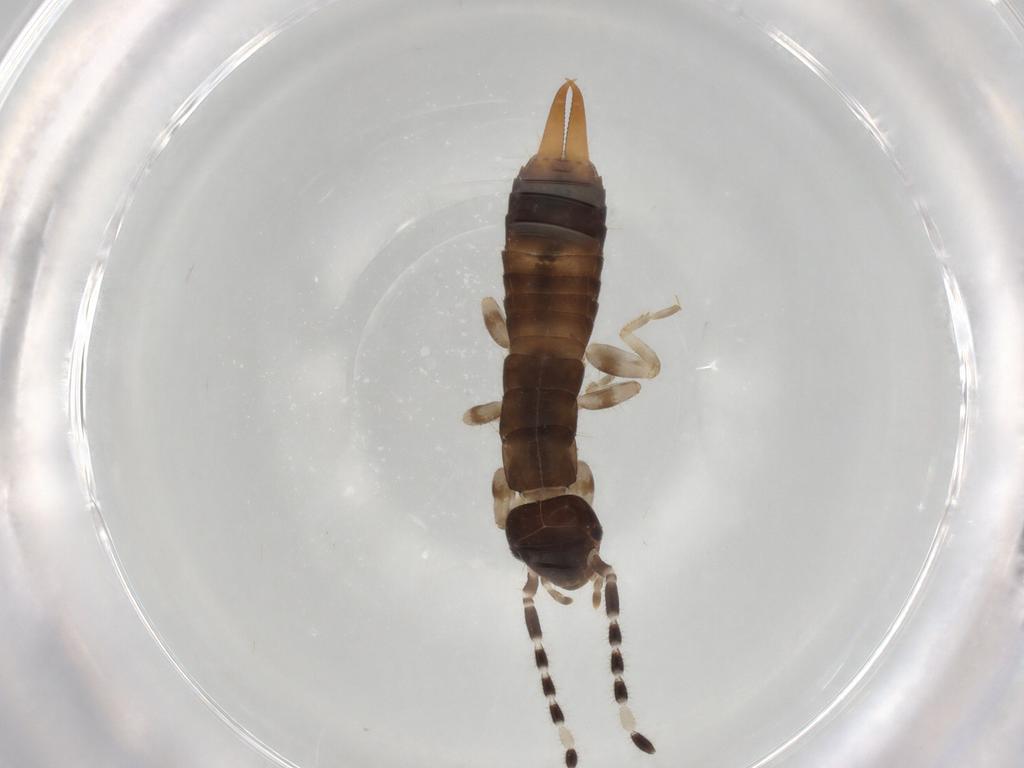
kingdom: Animalia
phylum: Arthropoda
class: Insecta
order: Dermaptera
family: Anisolabididae
